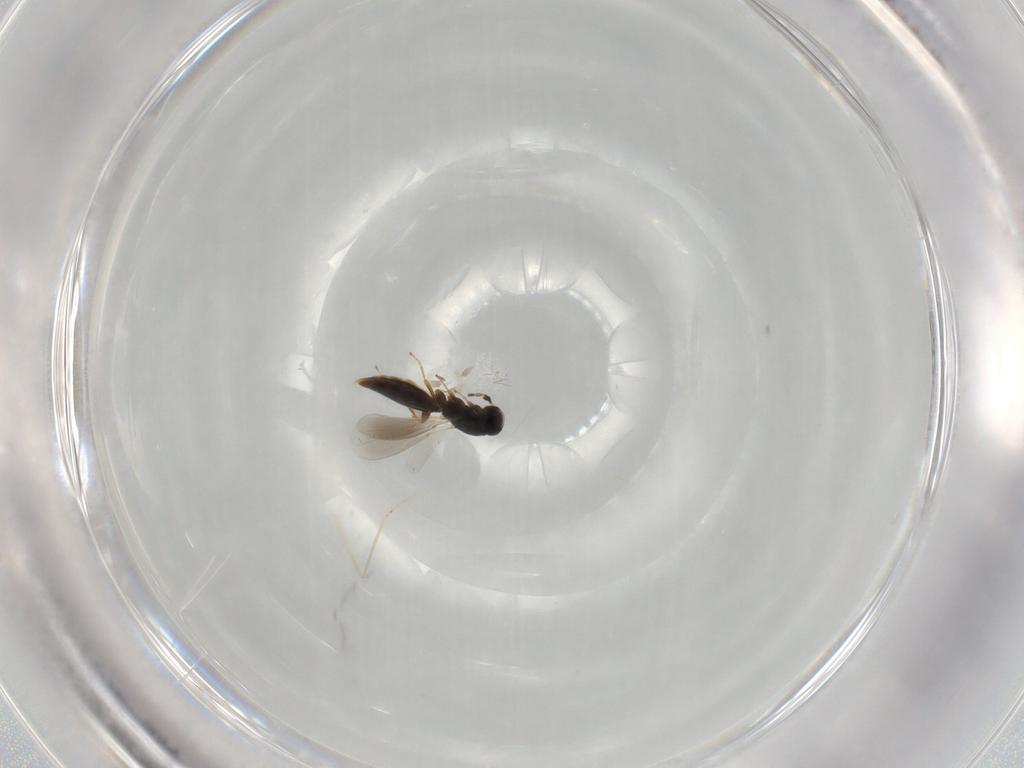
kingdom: Animalia
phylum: Arthropoda
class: Insecta
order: Hymenoptera
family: Platygastridae
